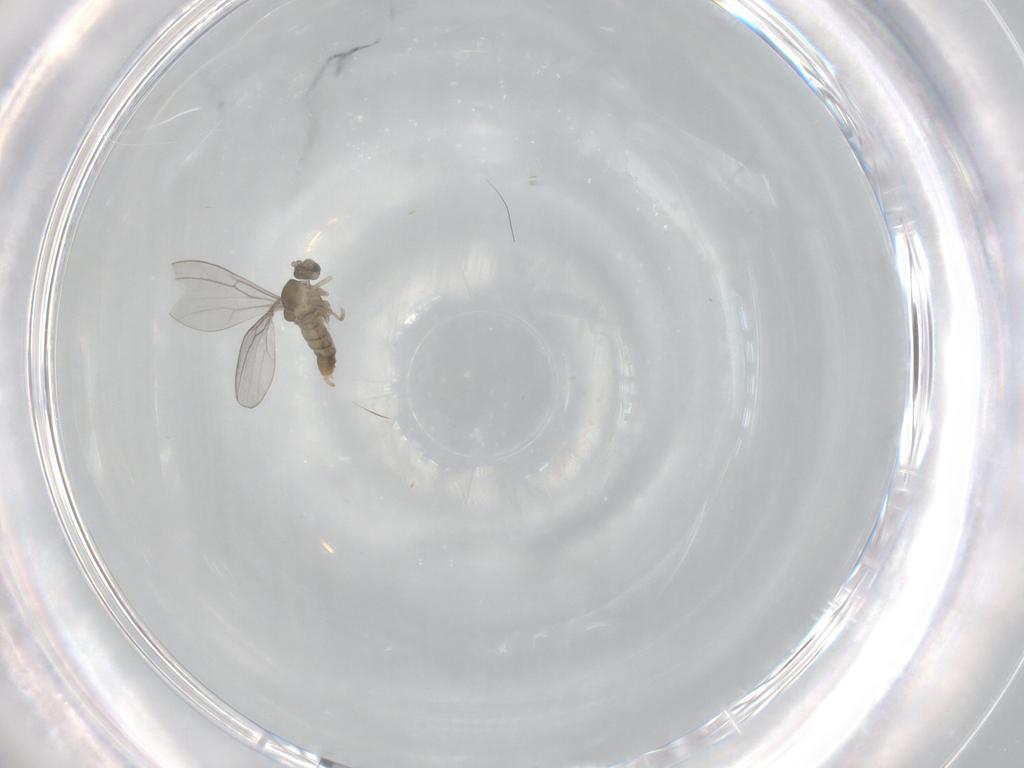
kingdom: Animalia
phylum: Arthropoda
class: Insecta
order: Diptera
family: Cecidomyiidae
